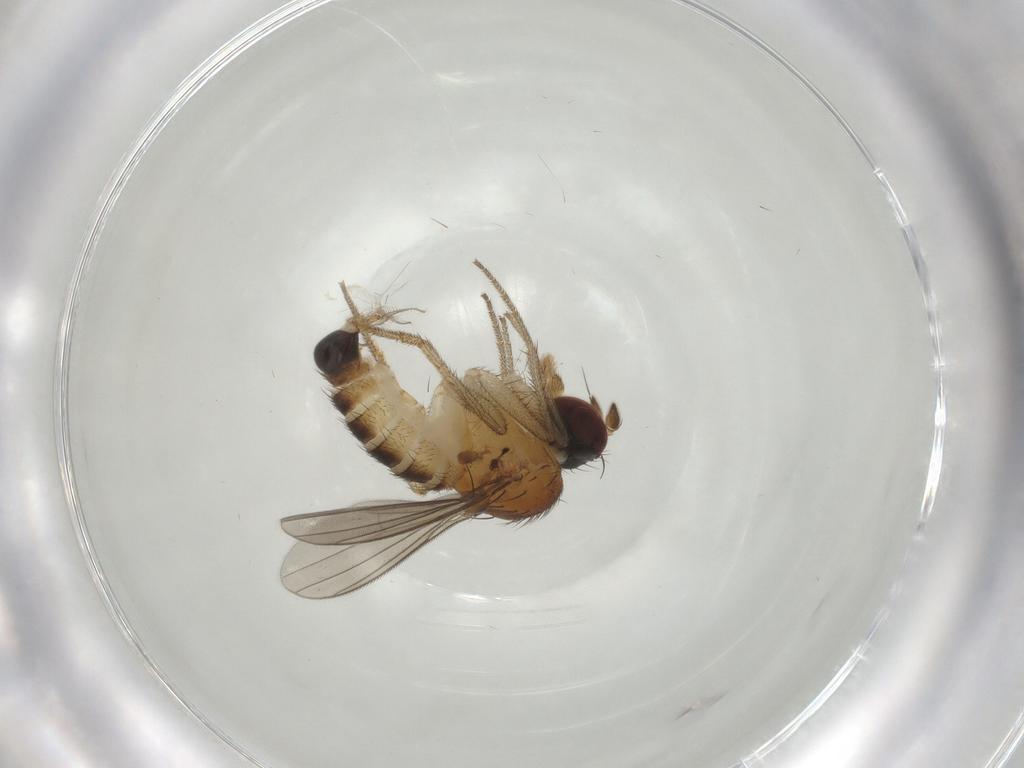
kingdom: Animalia
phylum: Arthropoda
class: Insecta
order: Diptera
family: Dolichopodidae
